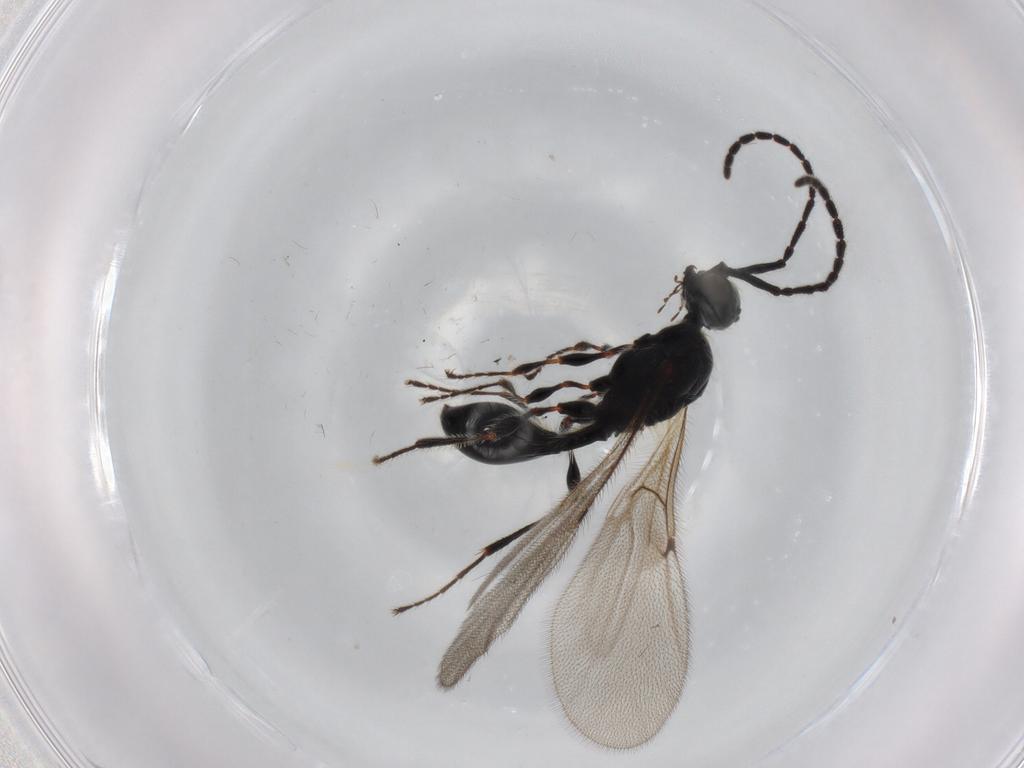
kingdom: Animalia
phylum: Arthropoda
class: Insecta
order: Hymenoptera
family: Diapriidae
